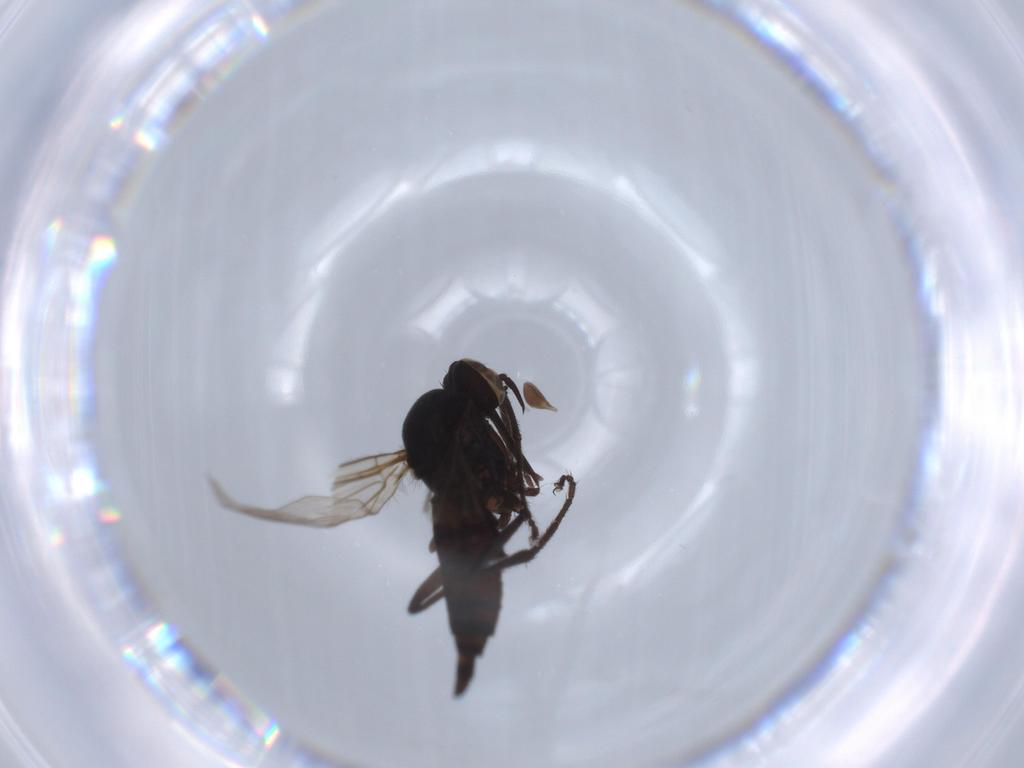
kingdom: Animalia
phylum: Arthropoda
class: Insecta
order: Diptera
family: Empididae
